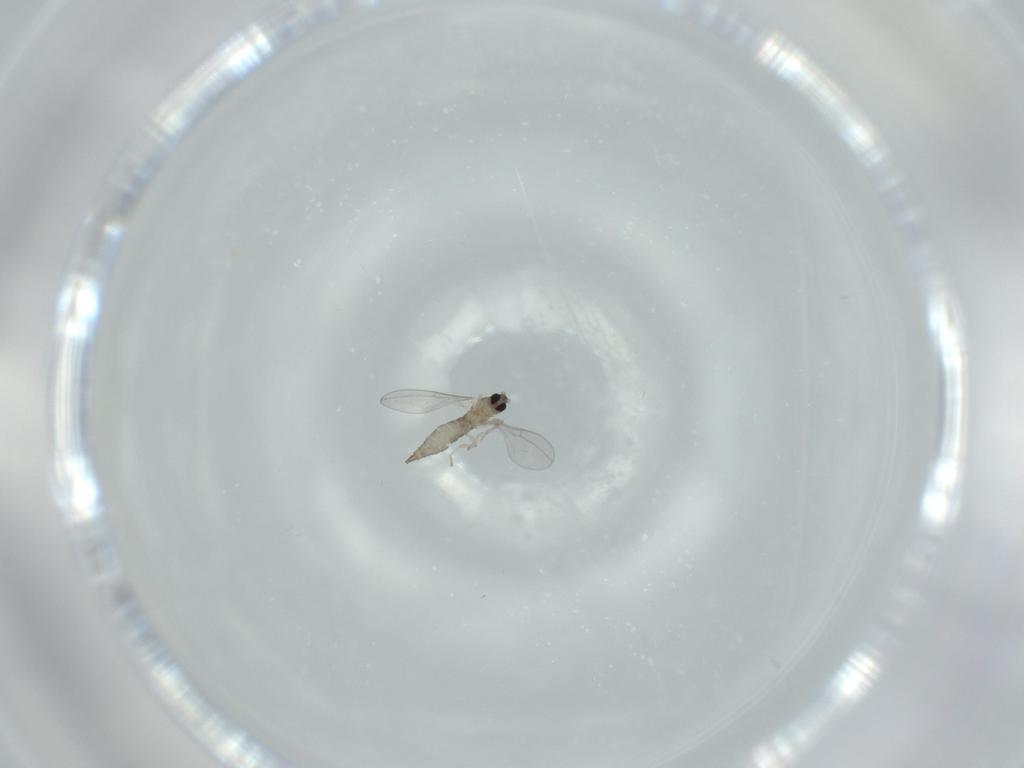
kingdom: Animalia
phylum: Arthropoda
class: Insecta
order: Diptera
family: Cecidomyiidae
